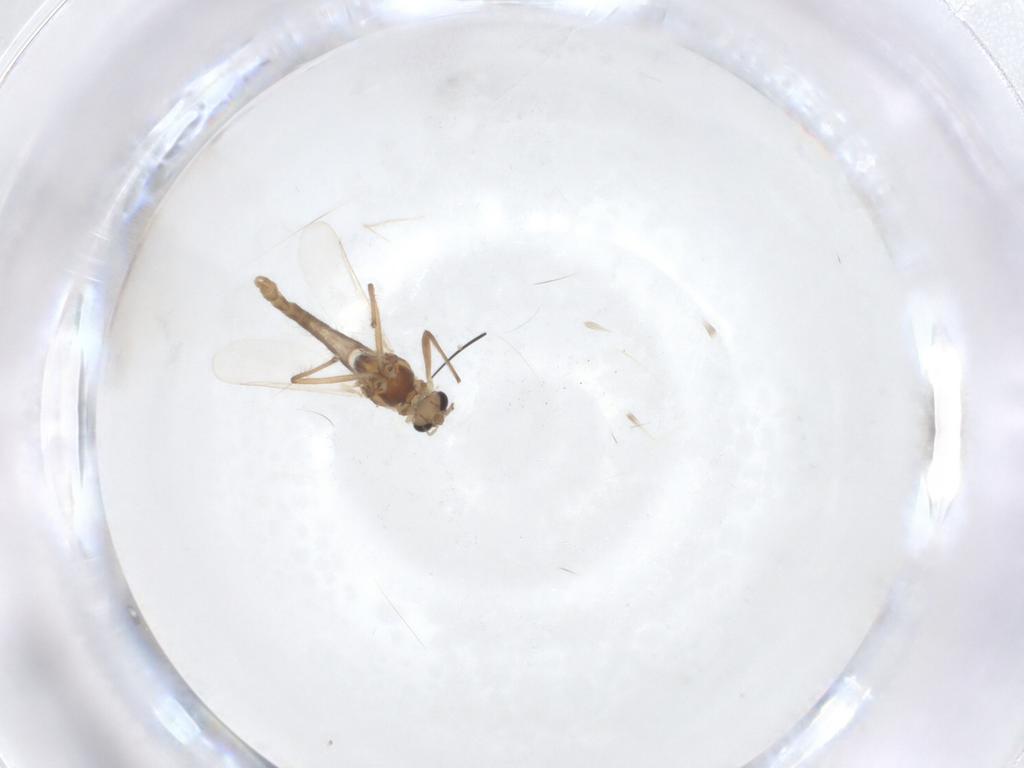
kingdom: Animalia
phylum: Arthropoda
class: Insecta
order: Diptera
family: Chironomidae
